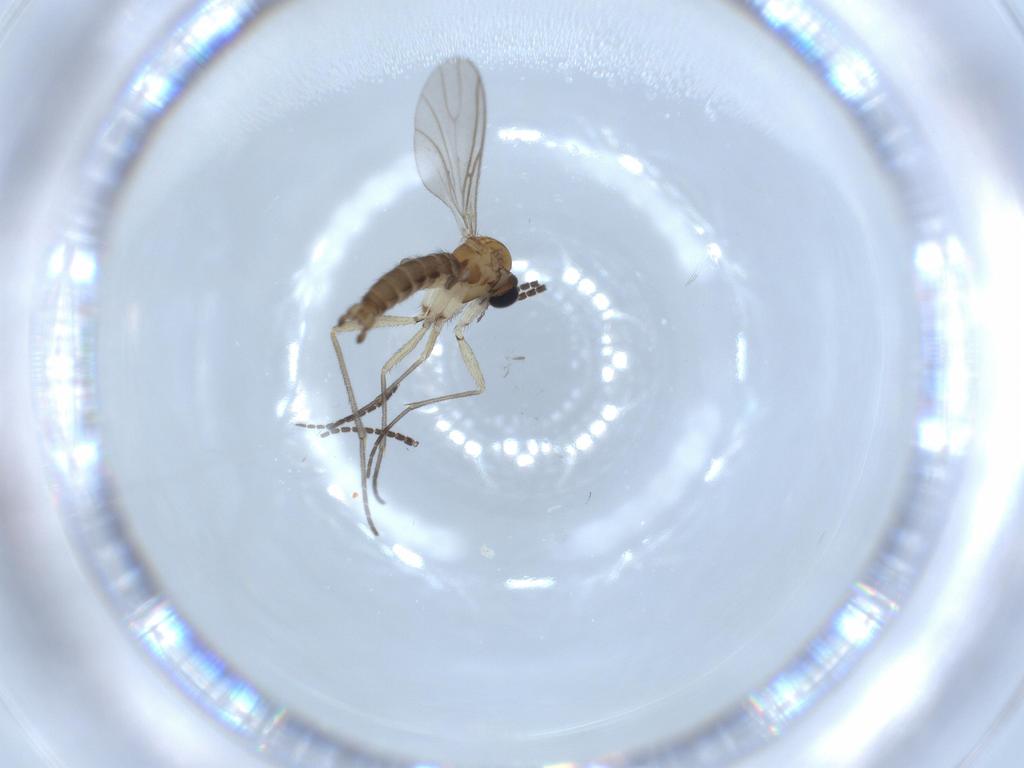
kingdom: Animalia
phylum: Arthropoda
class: Insecta
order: Diptera
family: Sciaridae
